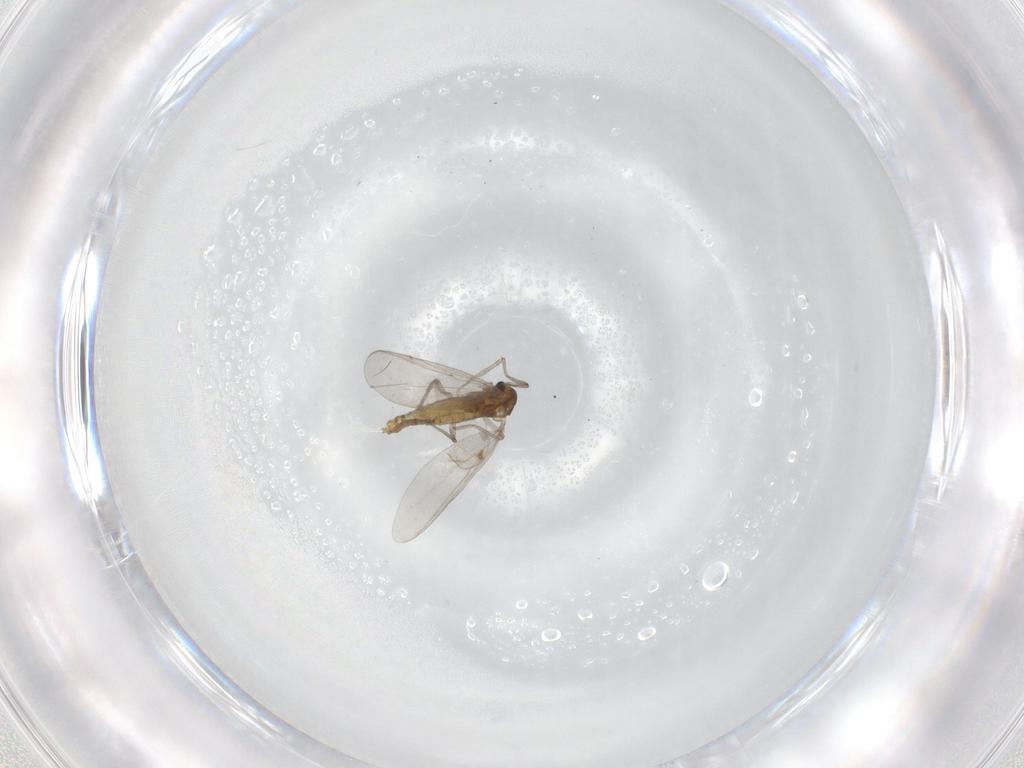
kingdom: Animalia
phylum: Arthropoda
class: Insecta
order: Diptera
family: Chironomidae
